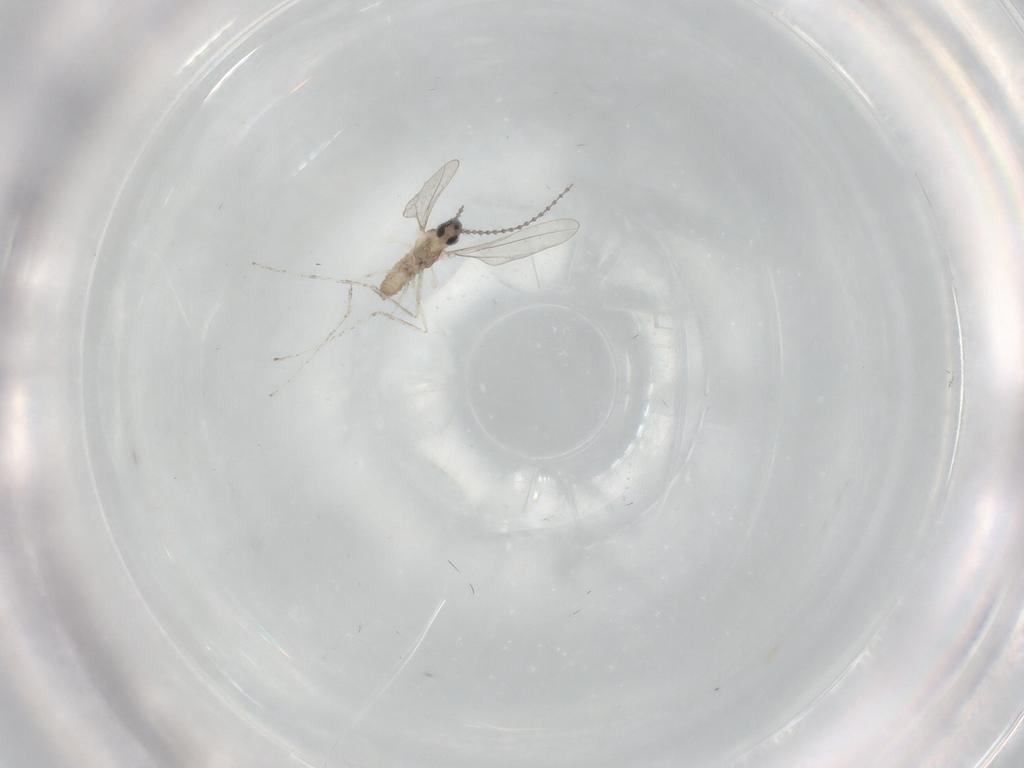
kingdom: Animalia
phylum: Arthropoda
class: Insecta
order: Diptera
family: Cecidomyiidae
